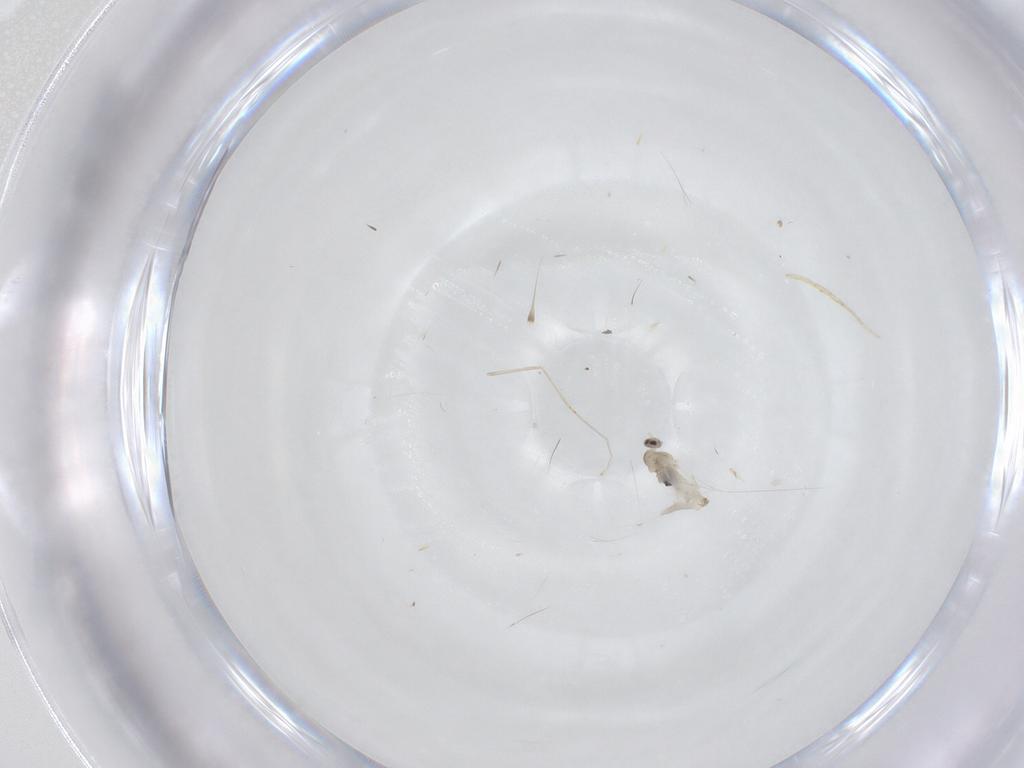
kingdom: Animalia
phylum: Arthropoda
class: Insecta
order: Diptera
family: Cecidomyiidae
